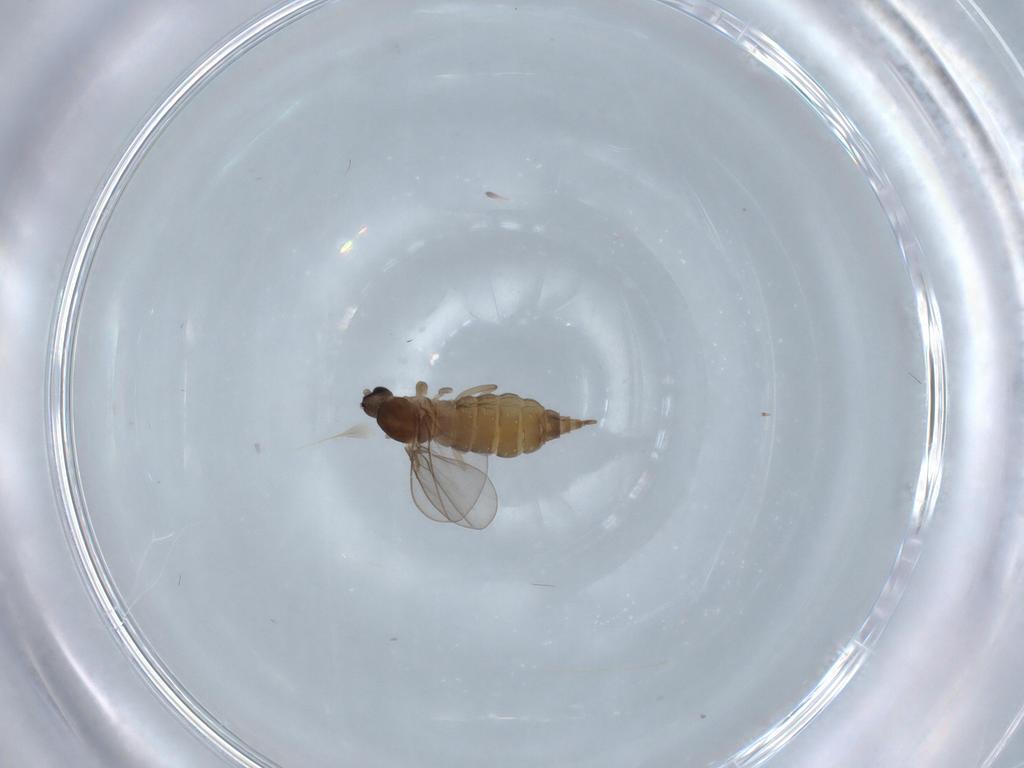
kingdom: Animalia
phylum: Arthropoda
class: Insecta
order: Diptera
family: Cecidomyiidae
